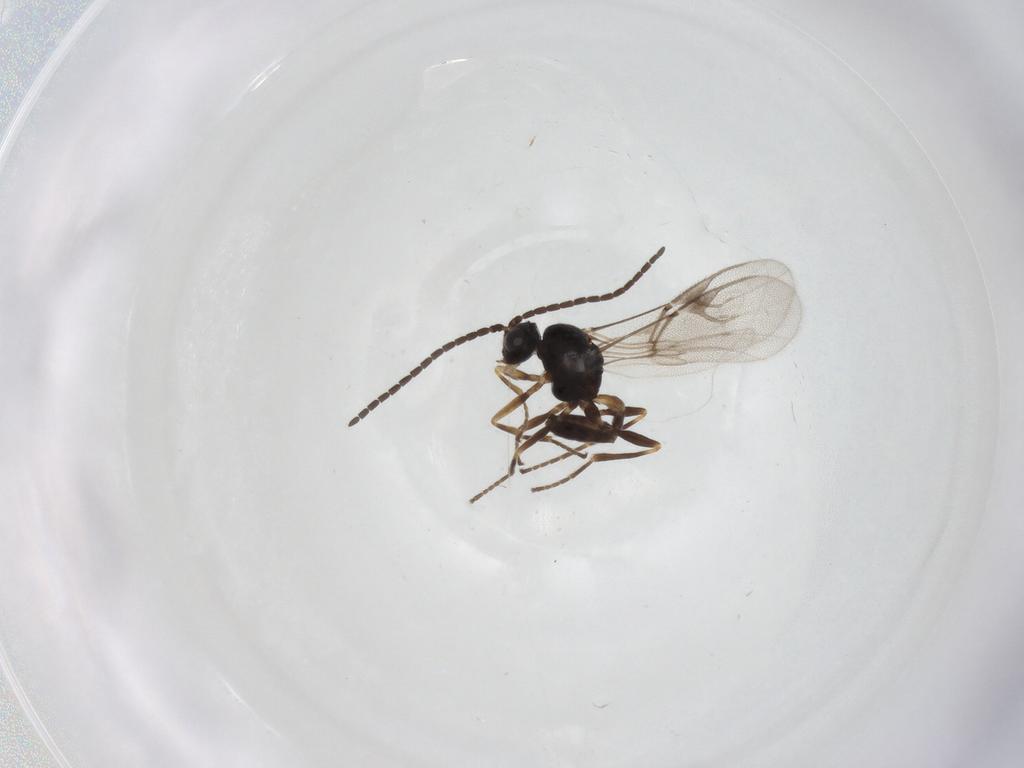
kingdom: Animalia
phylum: Arthropoda
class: Insecta
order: Hymenoptera
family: Braconidae
